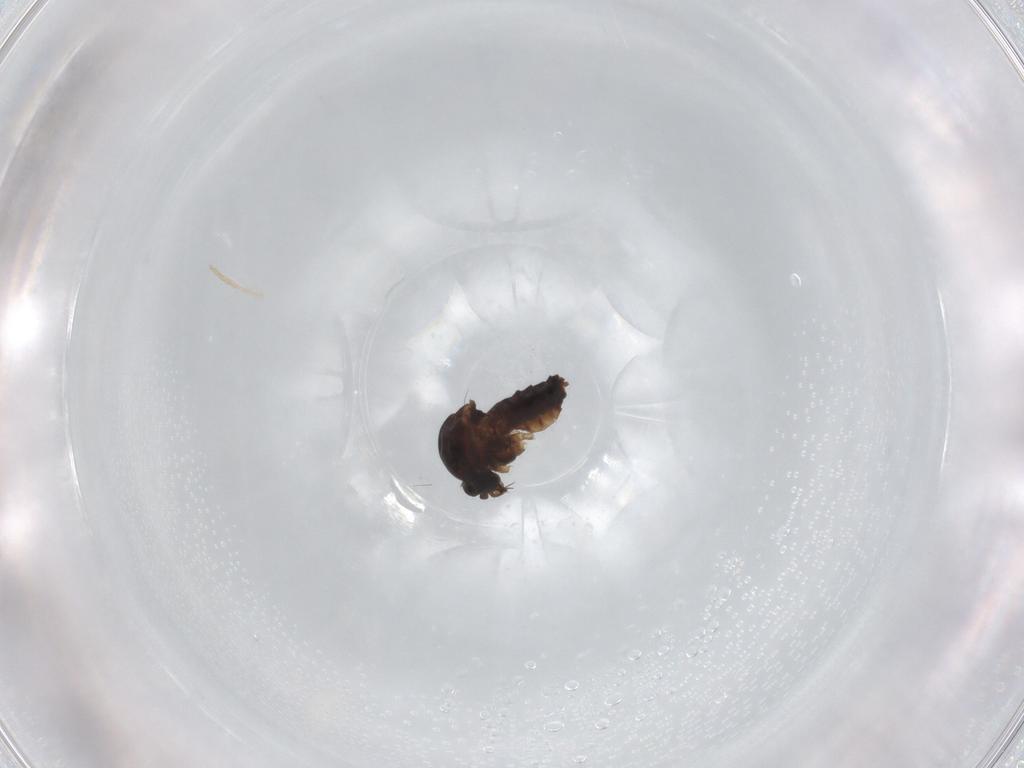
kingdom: Animalia
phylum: Arthropoda
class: Insecta
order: Diptera
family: Ceratopogonidae
